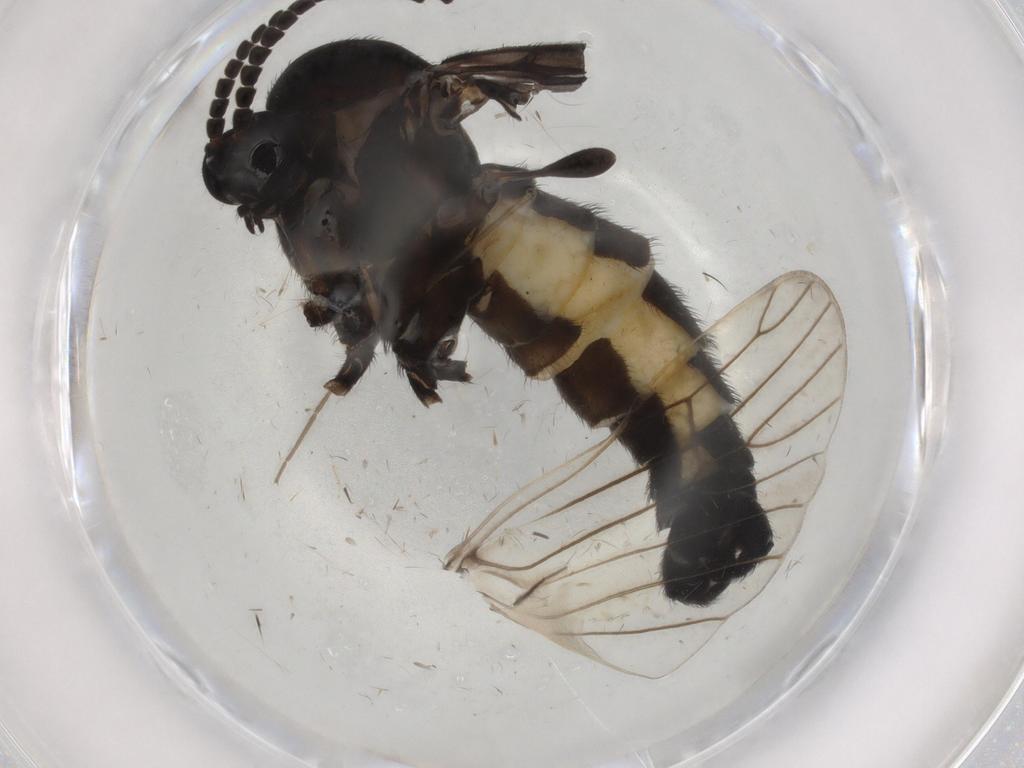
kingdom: Animalia
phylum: Arthropoda
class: Insecta
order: Diptera
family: Sciaridae
